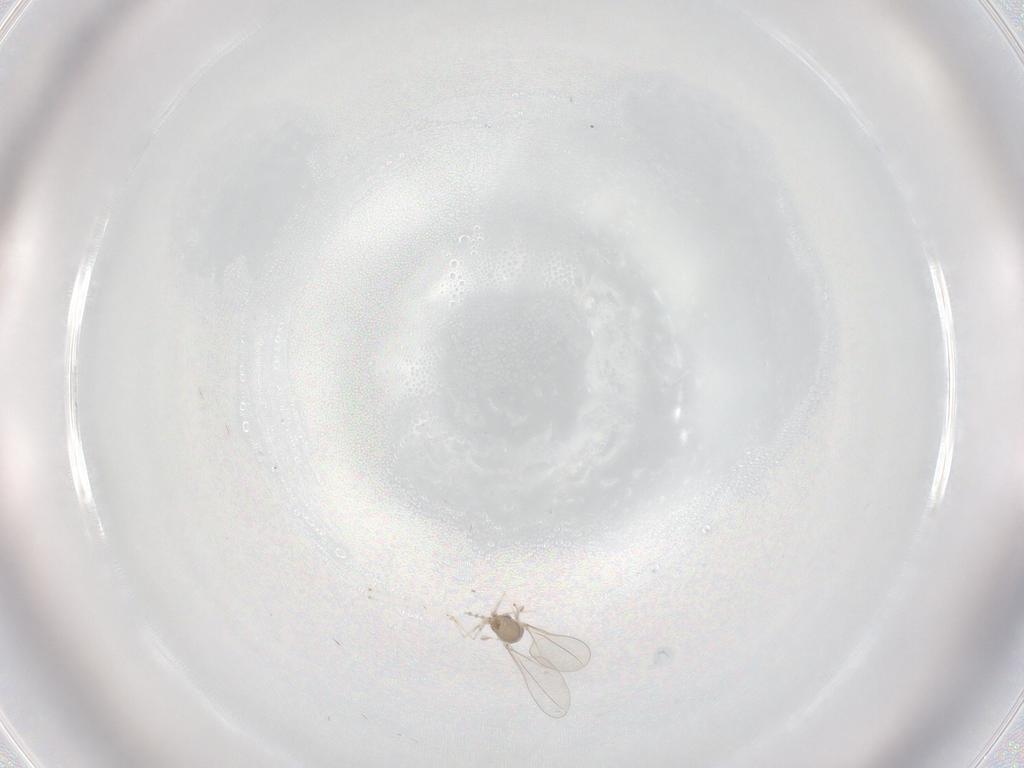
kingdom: Animalia
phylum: Arthropoda
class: Insecta
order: Diptera
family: Cecidomyiidae
